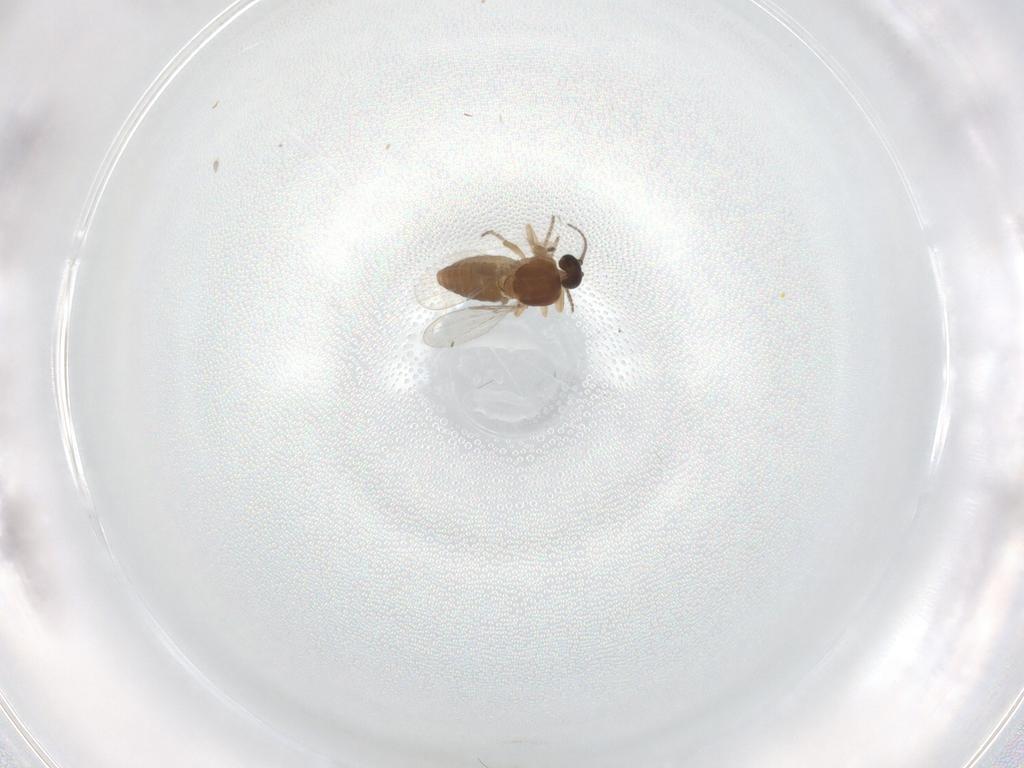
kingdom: Animalia
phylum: Arthropoda
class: Insecta
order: Diptera
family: Ceratopogonidae
